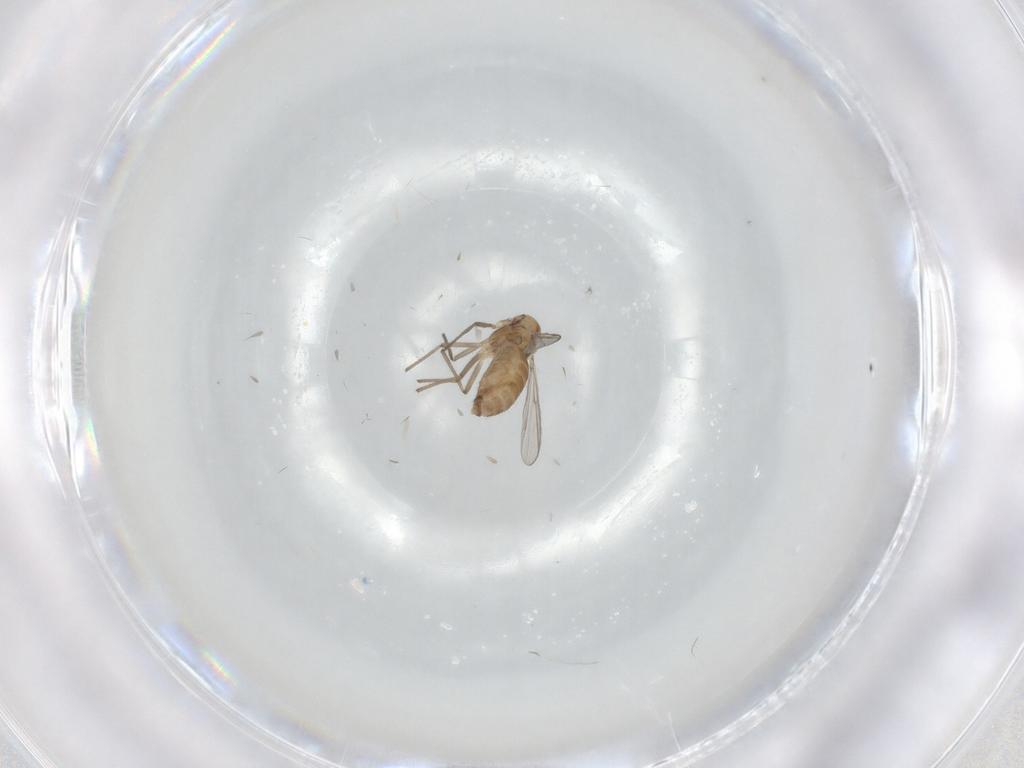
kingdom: Animalia
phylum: Arthropoda
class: Insecta
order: Diptera
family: Chironomidae
